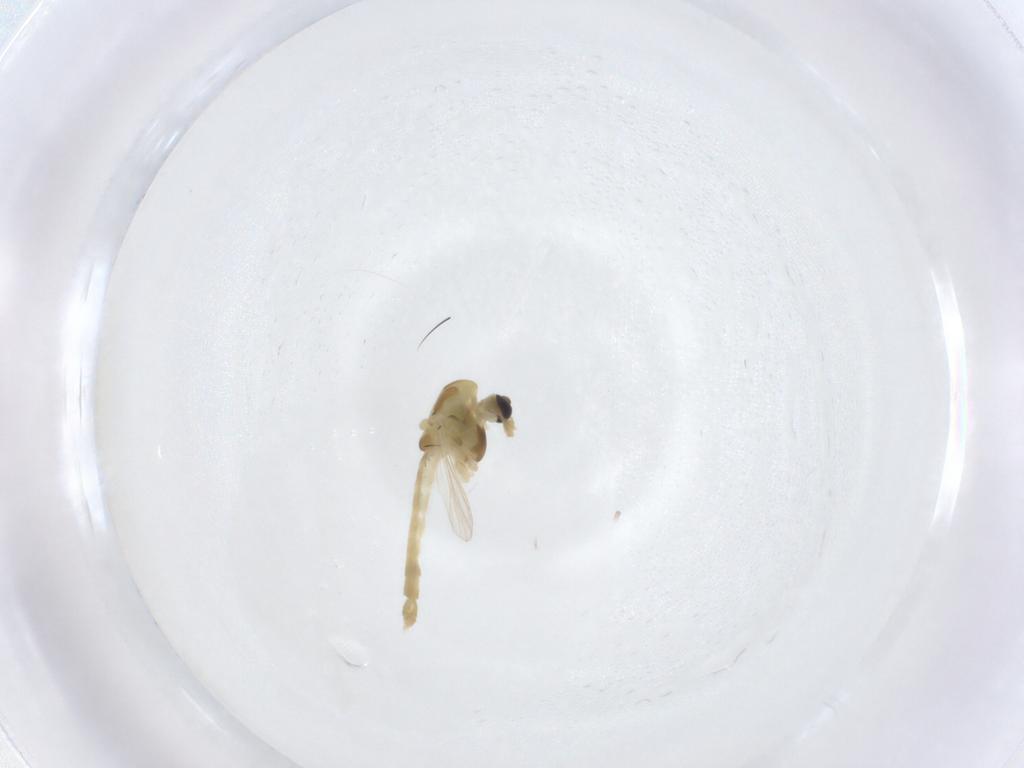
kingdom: Animalia
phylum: Arthropoda
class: Insecta
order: Diptera
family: Chironomidae
